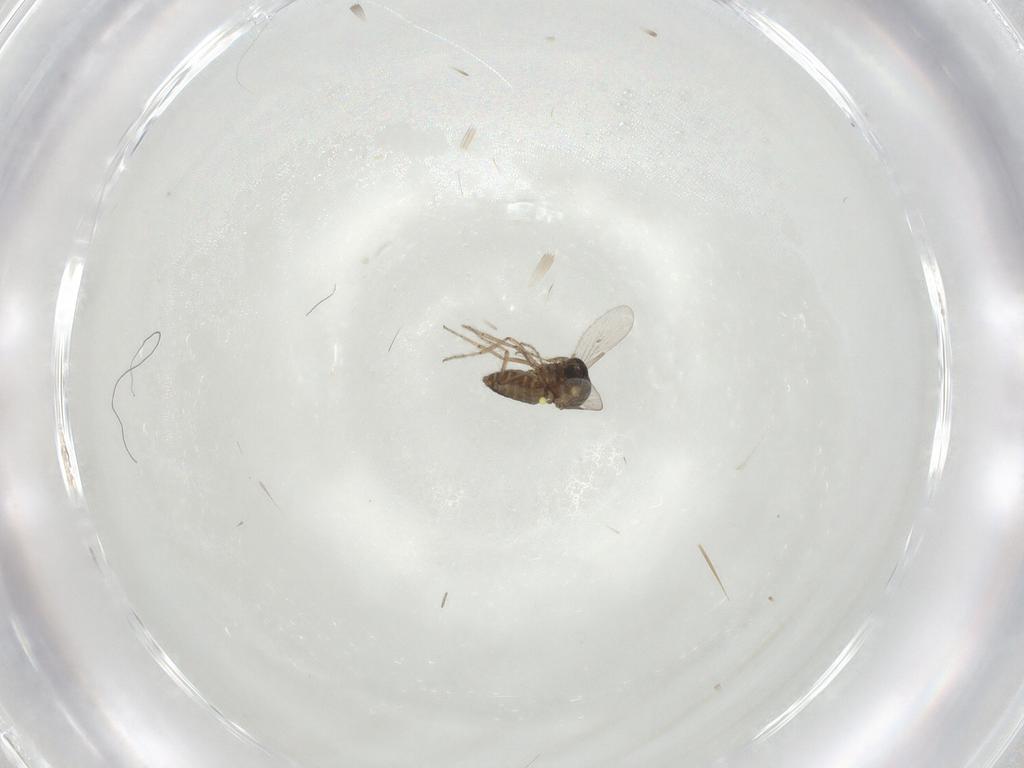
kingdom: Animalia
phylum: Arthropoda
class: Insecta
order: Diptera
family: Ceratopogonidae
